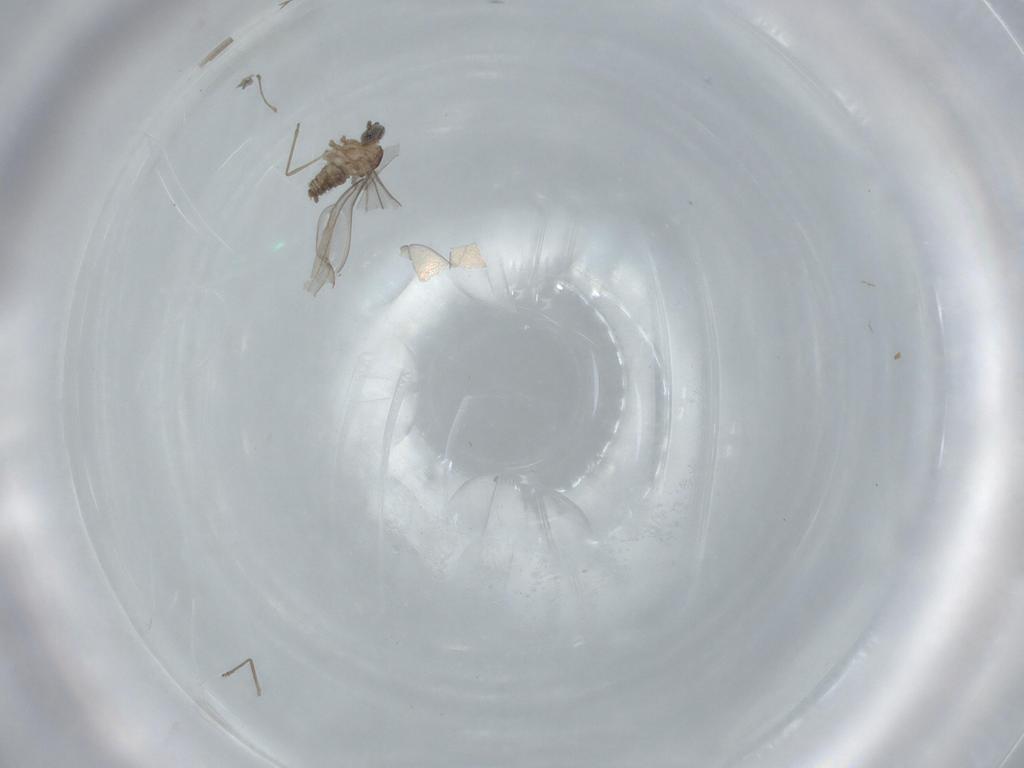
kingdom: Animalia
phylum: Arthropoda
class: Insecta
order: Diptera
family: Cecidomyiidae
